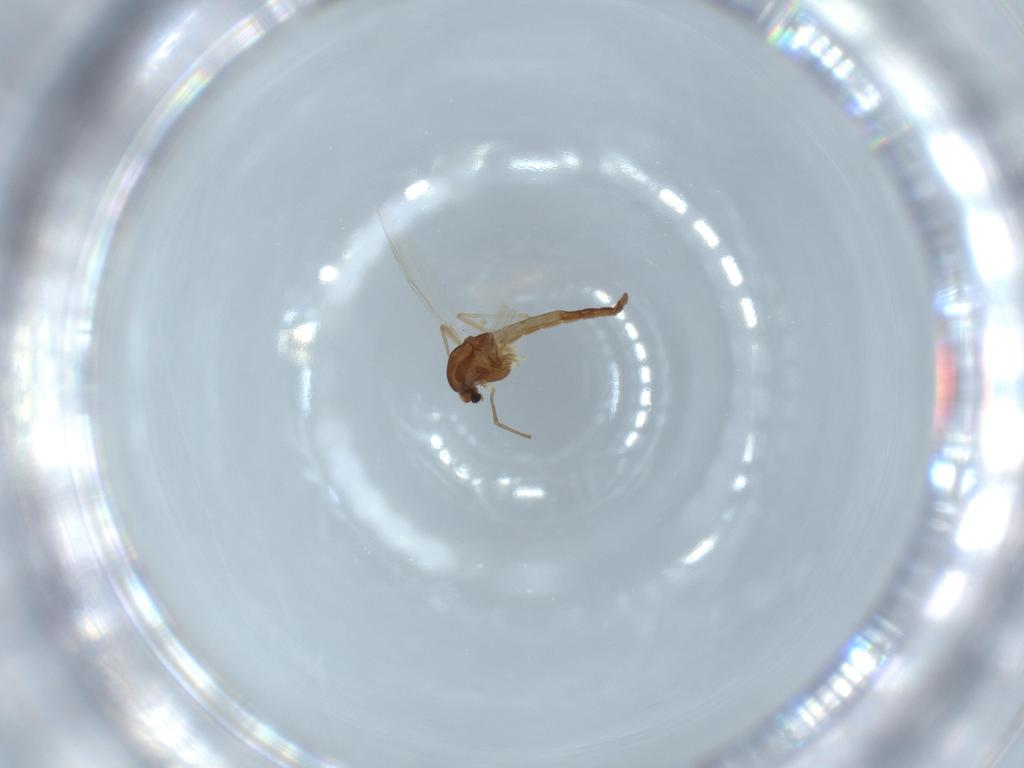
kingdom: Animalia
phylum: Arthropoda
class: Insecta
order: Diptera
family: Chironomidae
